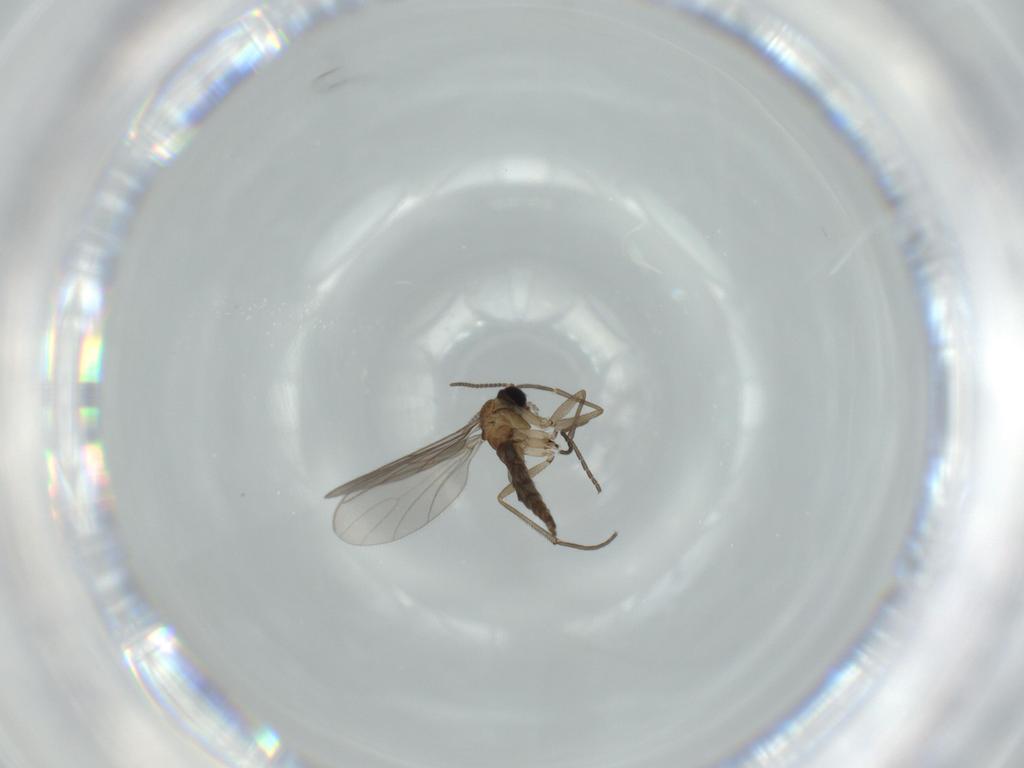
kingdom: Animalia
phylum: Arthropoda
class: Insecta
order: Diptera
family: Sciaridae
